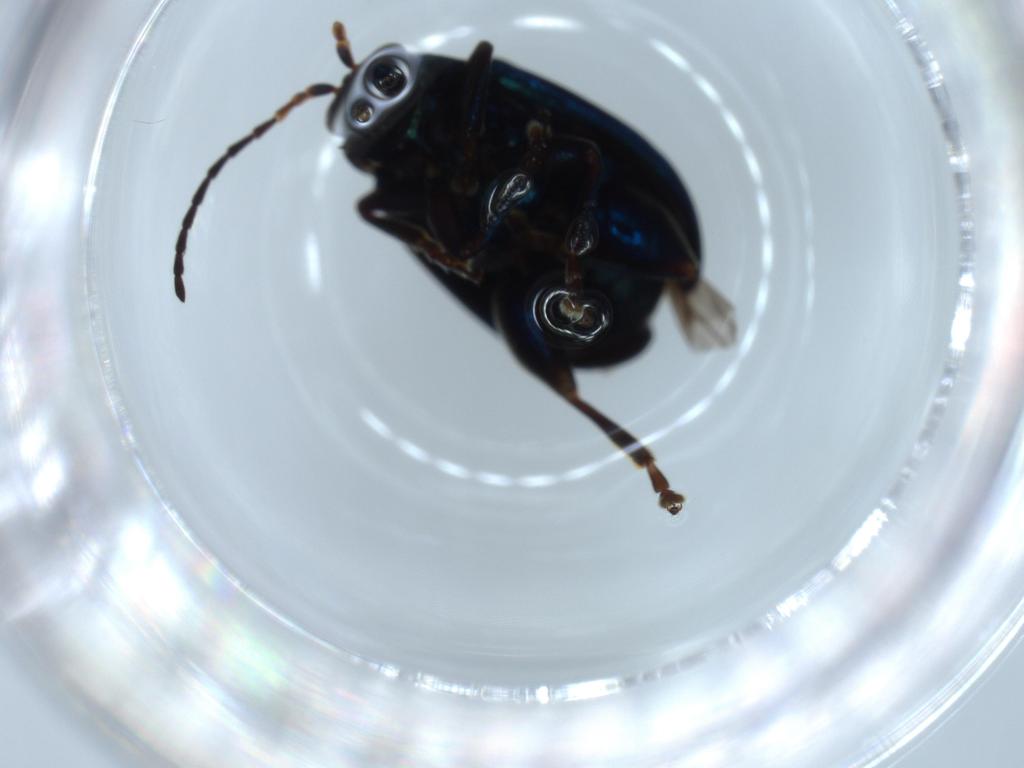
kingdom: Animalia
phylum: Arthropoda
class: Insecta
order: Coleoptera
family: Chrysomelidae
